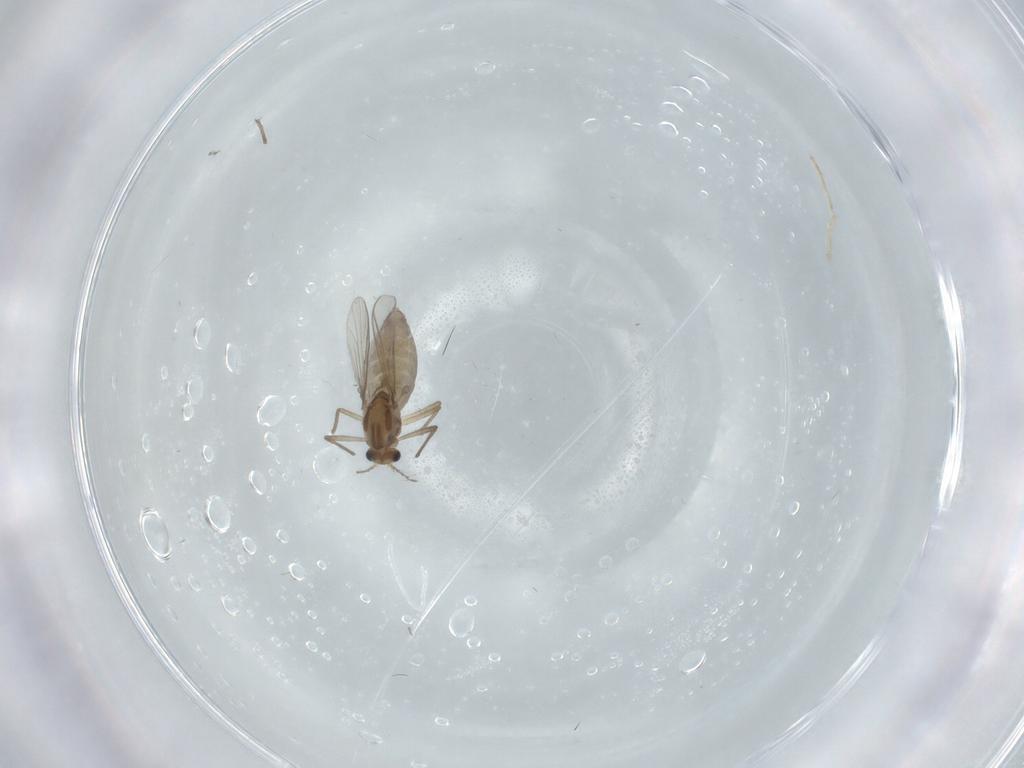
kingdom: Animalia
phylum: Arthropoda
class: Insecta
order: Diptera
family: Chironomidae
